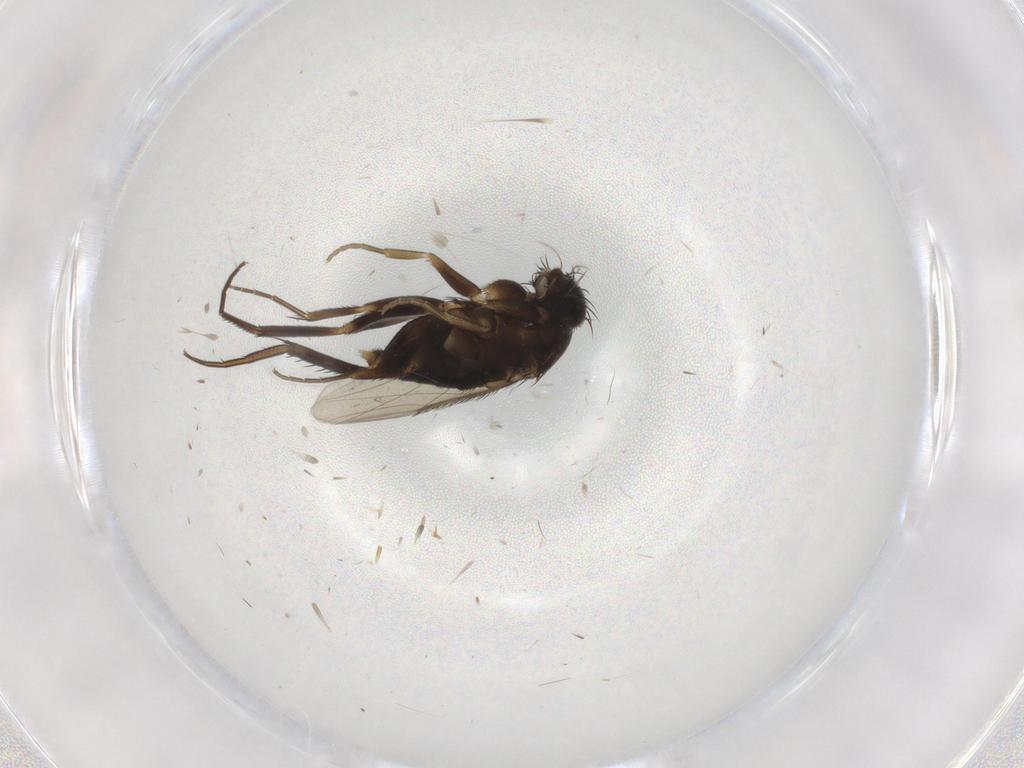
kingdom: Animalia
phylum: Arthropoda
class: Insecta
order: Diptera
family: Phoridae
